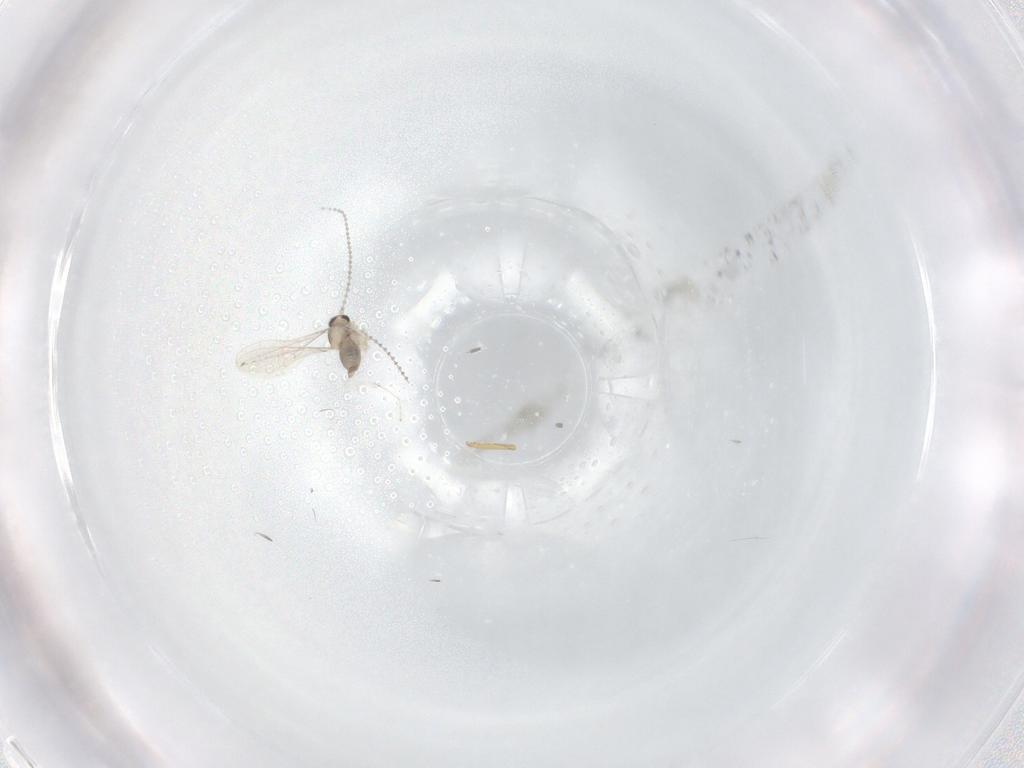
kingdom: Animalia
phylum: Arthropoda
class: Insecta
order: Diptera
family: Cecidomyiidae
